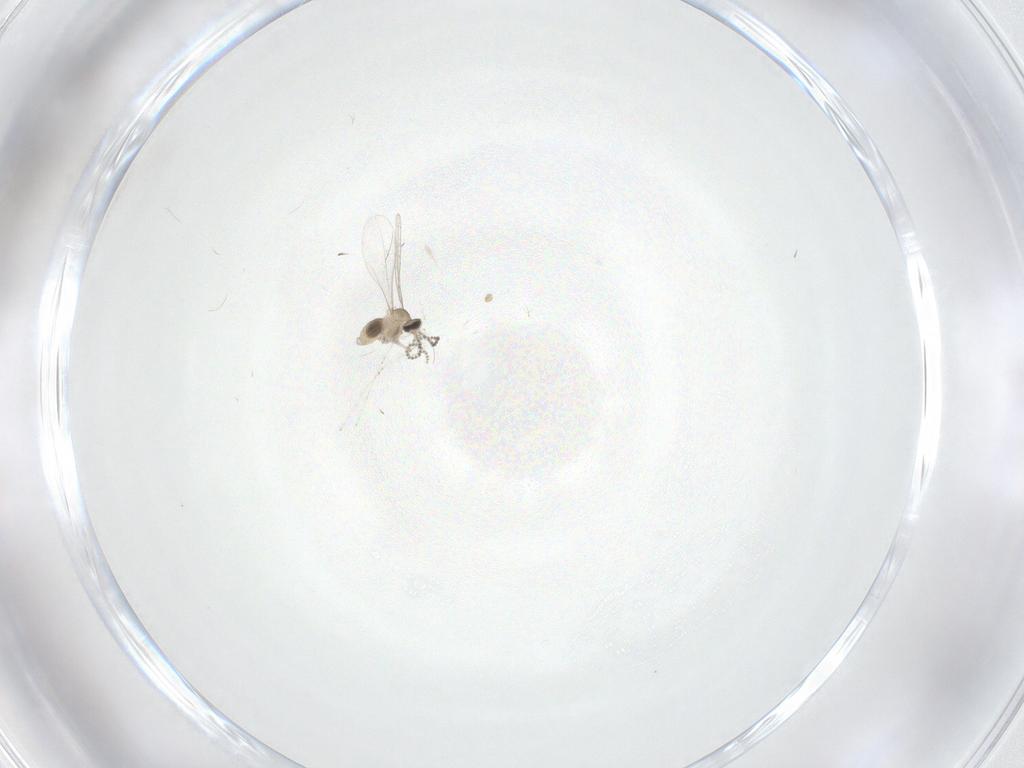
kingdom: Animalia
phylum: Arthropoda
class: Insecta
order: Diptera
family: Cecidomyiidae
